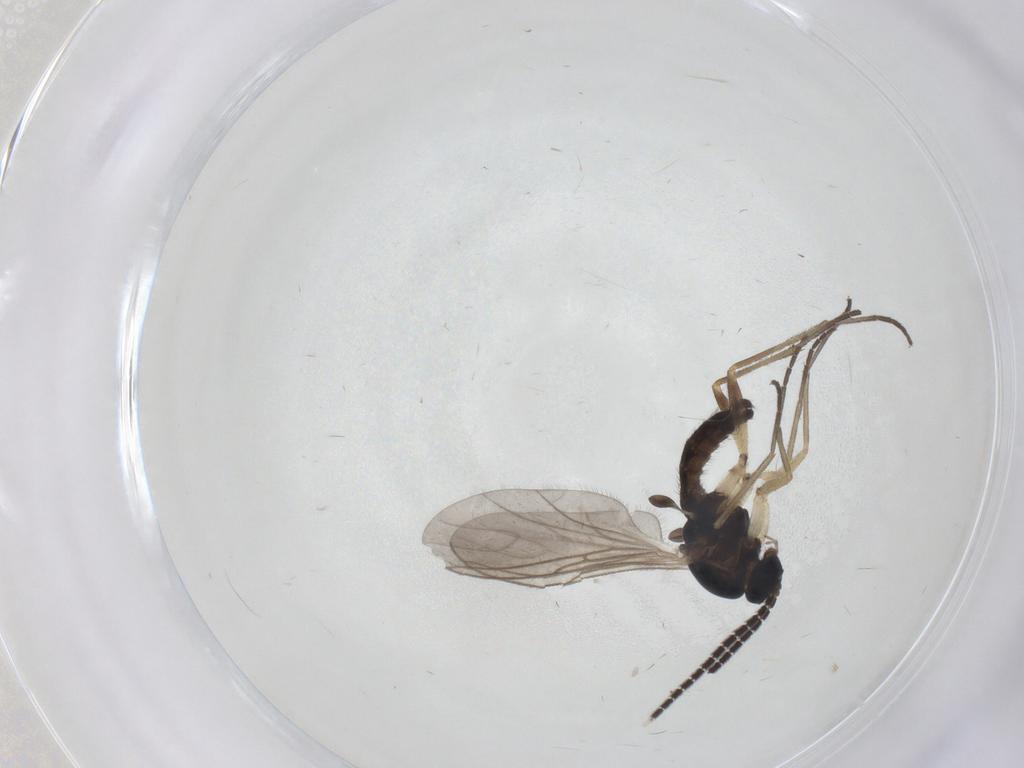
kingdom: Animalia
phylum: Arthropoda
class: Insecta
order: Diptera
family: Sciaridae
